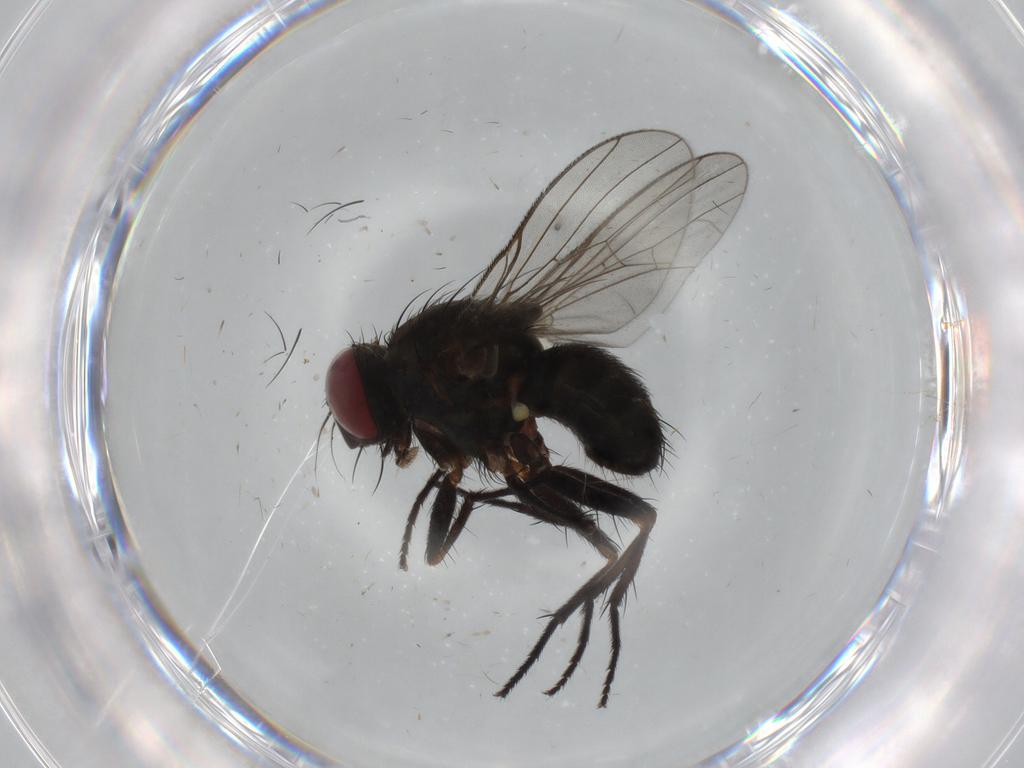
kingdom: Animalia
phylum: Arthropoda
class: Insecta
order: Diptera
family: Muscidae
